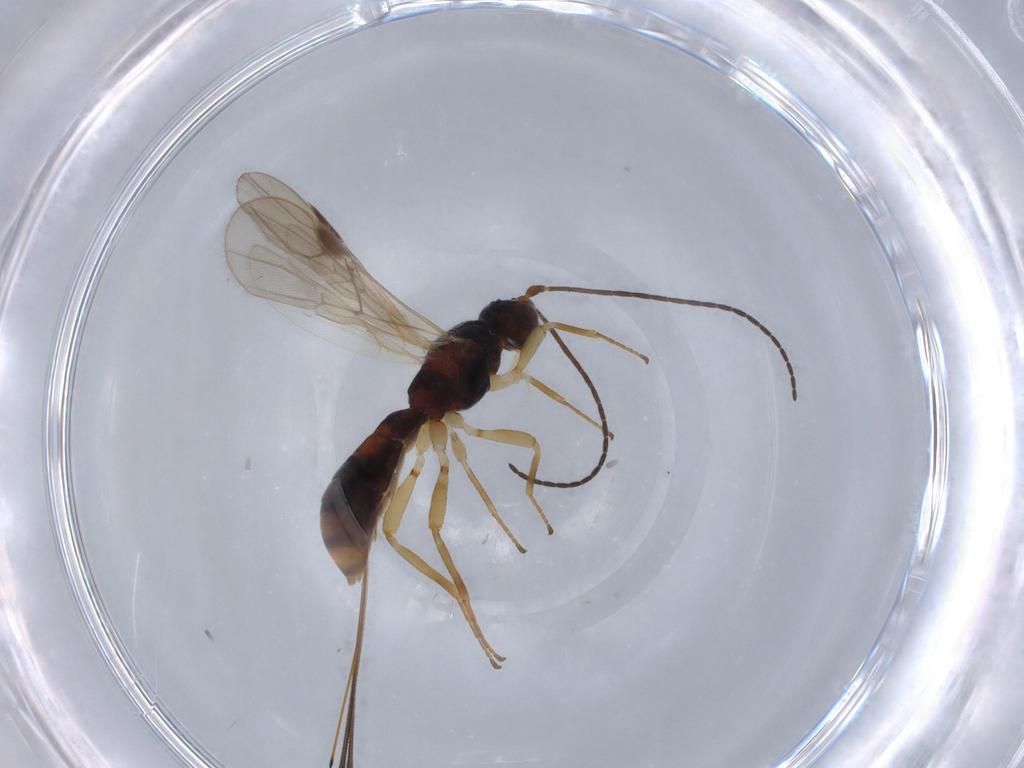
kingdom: Animalia
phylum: Arthropoda
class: Insecta
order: Hymenoptera
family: Braconidae
